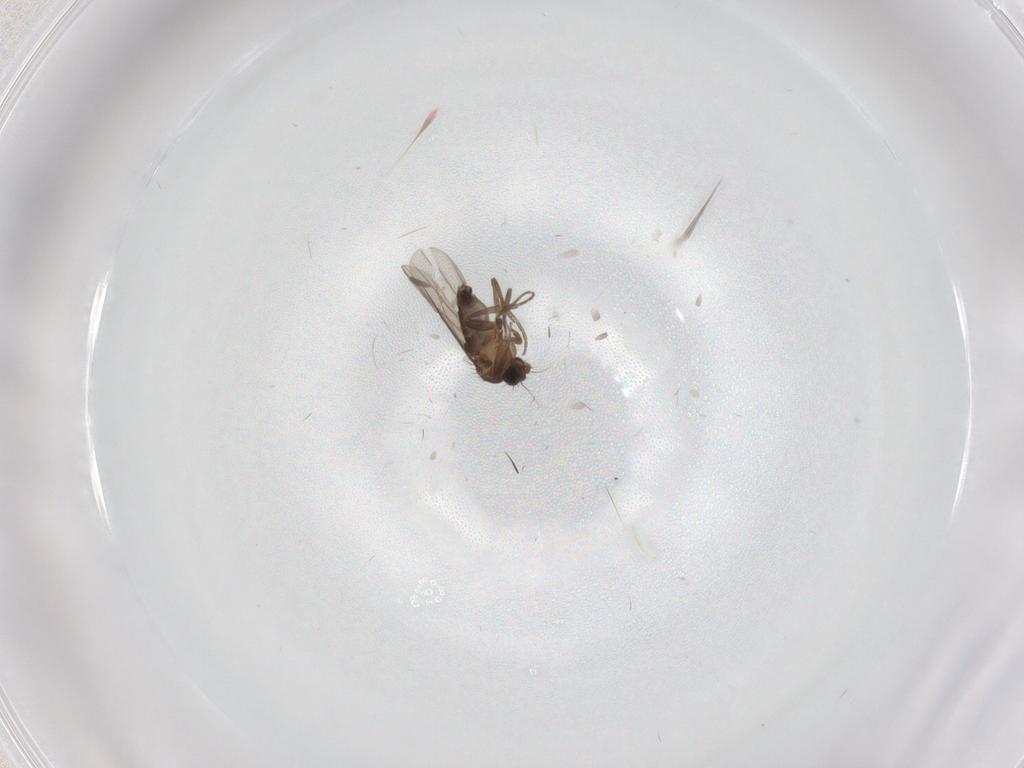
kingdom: Animalia
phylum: Arthropoda
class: Insecta
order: Diptera
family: Phoridae
